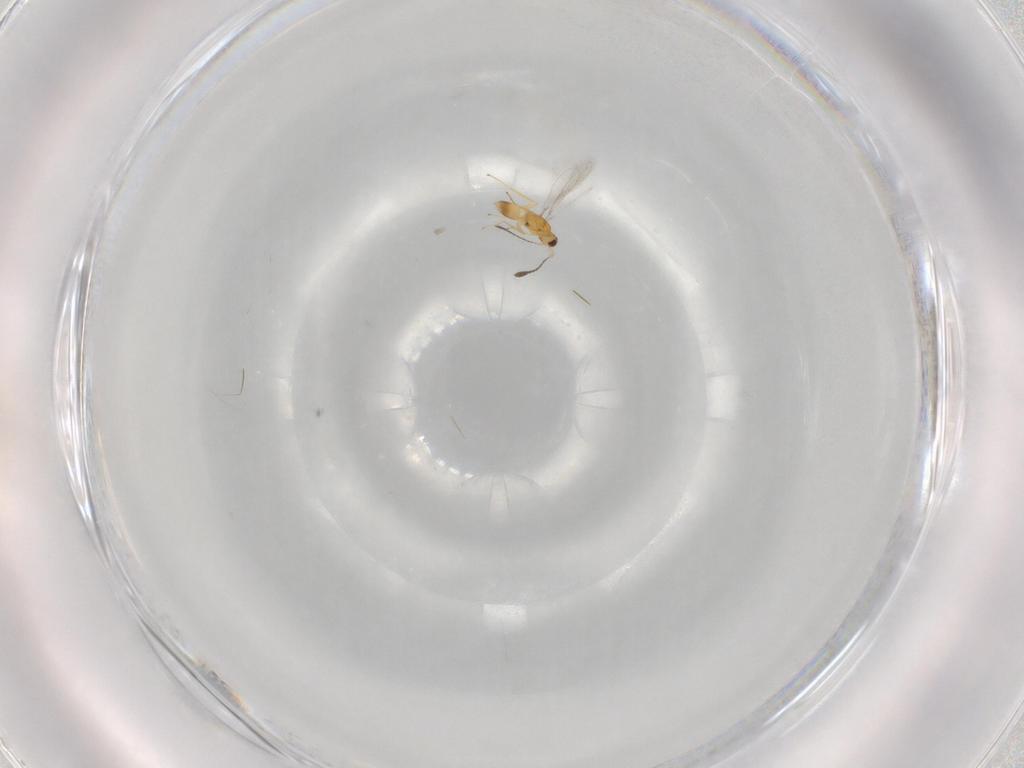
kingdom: Animalia
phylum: Arthropoda
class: Insecta
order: Hymenoptera
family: Mymaridae
